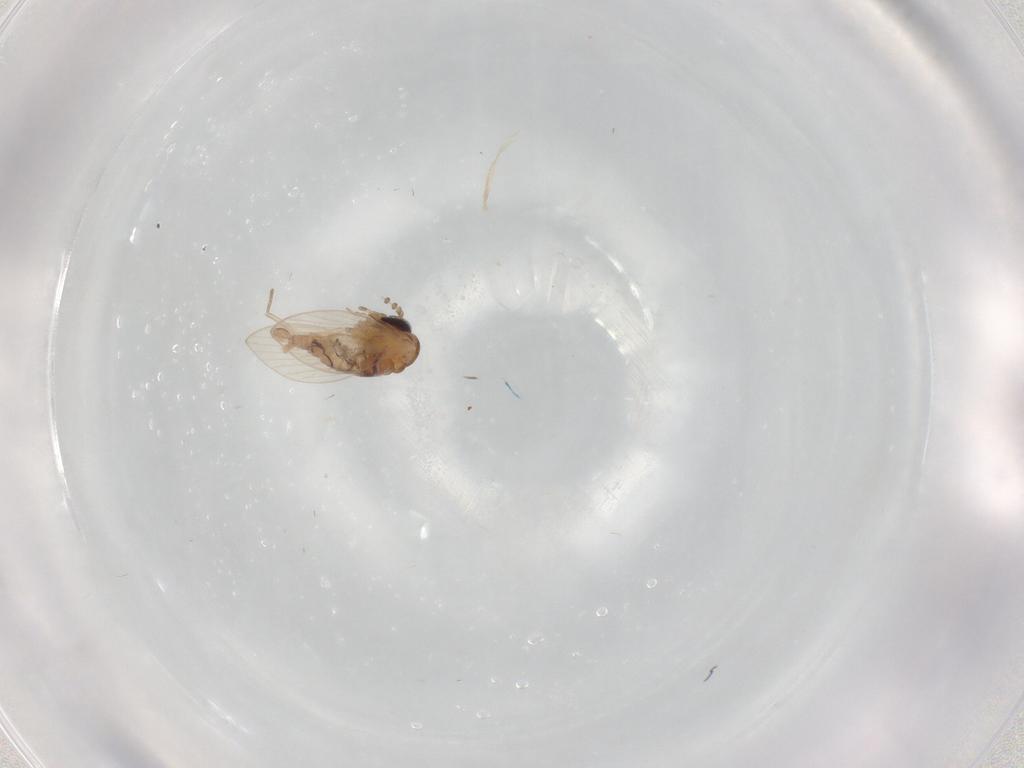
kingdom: Animalia
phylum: Arthropoda
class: Insecta
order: Diptera
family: Psychodidae
